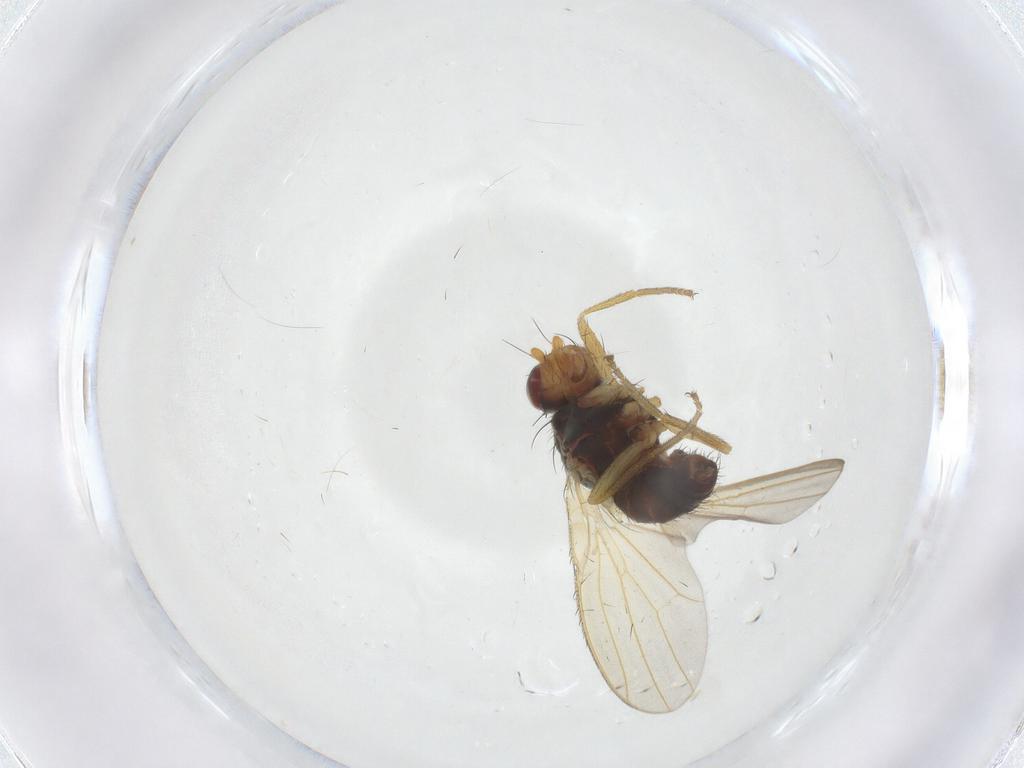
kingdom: Animalia
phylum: Arthropoda
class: Insecta
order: Diptera
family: Heleomyzidae
